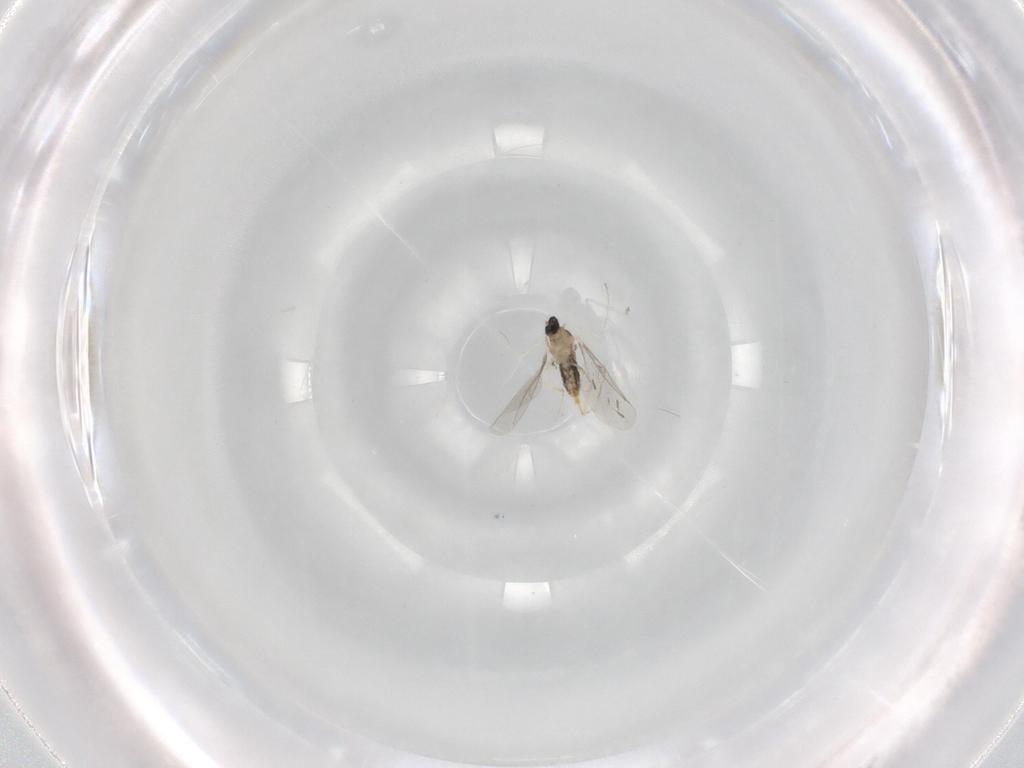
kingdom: Animalia
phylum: Arthropoda
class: Insecta
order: Diptera
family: Cecidomyiidae
